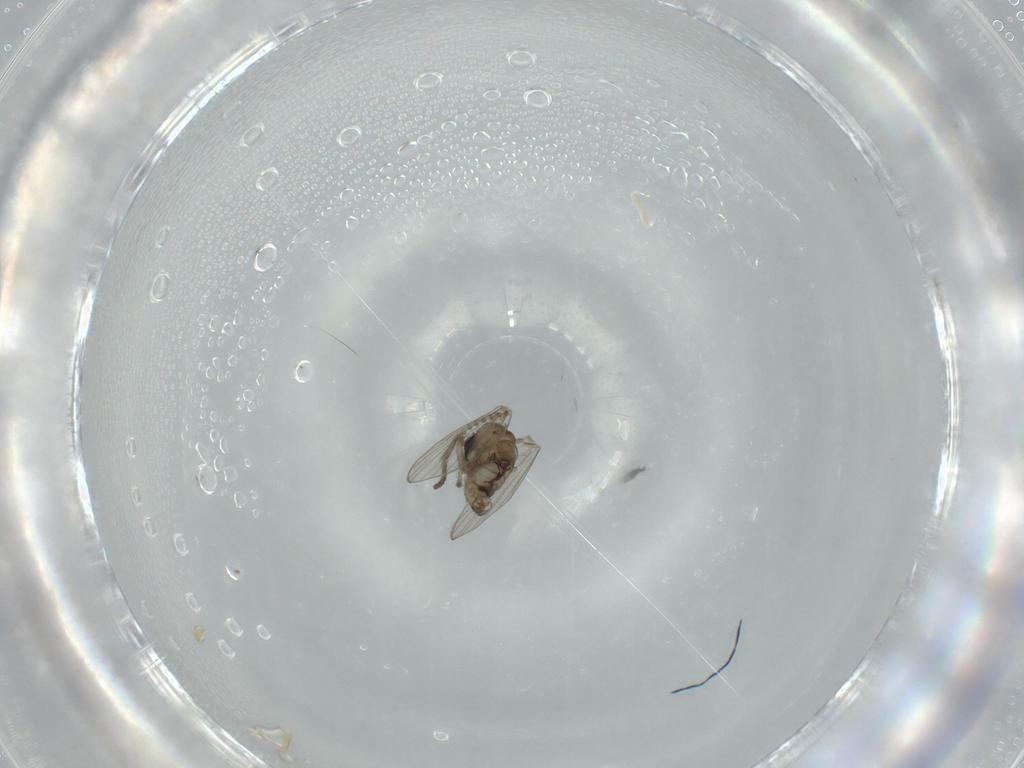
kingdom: Animalia
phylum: Arthropoda
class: Insecta
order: Diptera
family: Psychodidae
